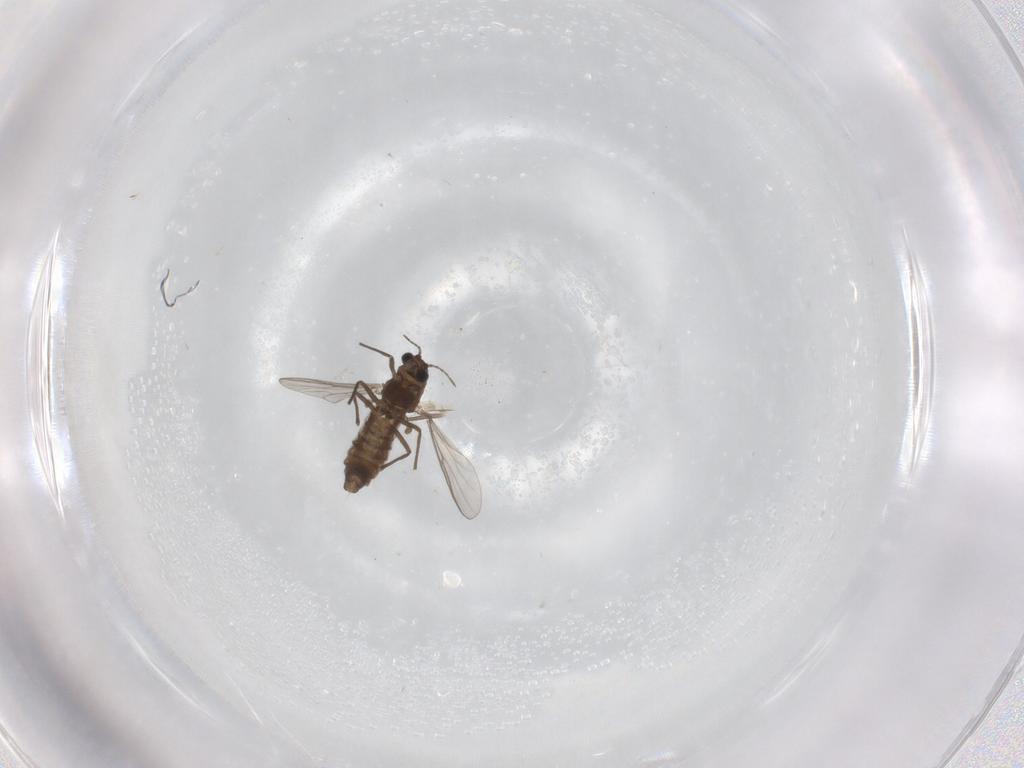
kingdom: Animalia
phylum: Arthropoda
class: Insecta
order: Diptera
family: Chironomidae
